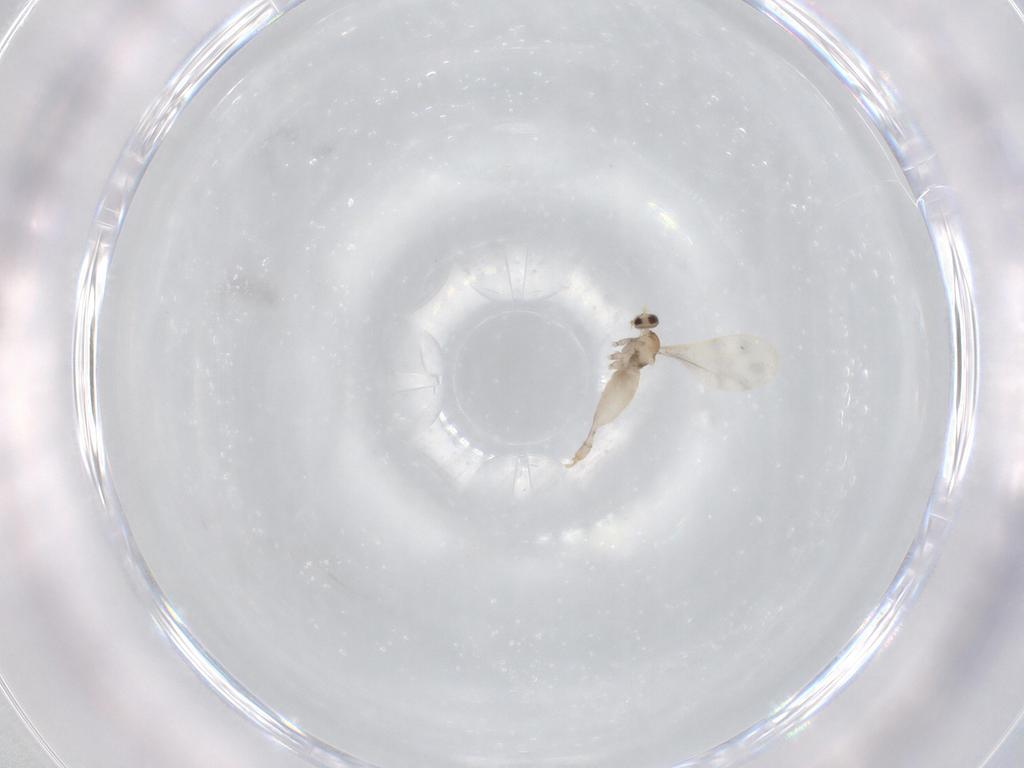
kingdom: Animalia
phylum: Arthropoda
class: Insecta
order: Diptera
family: Cecidomyiidae
